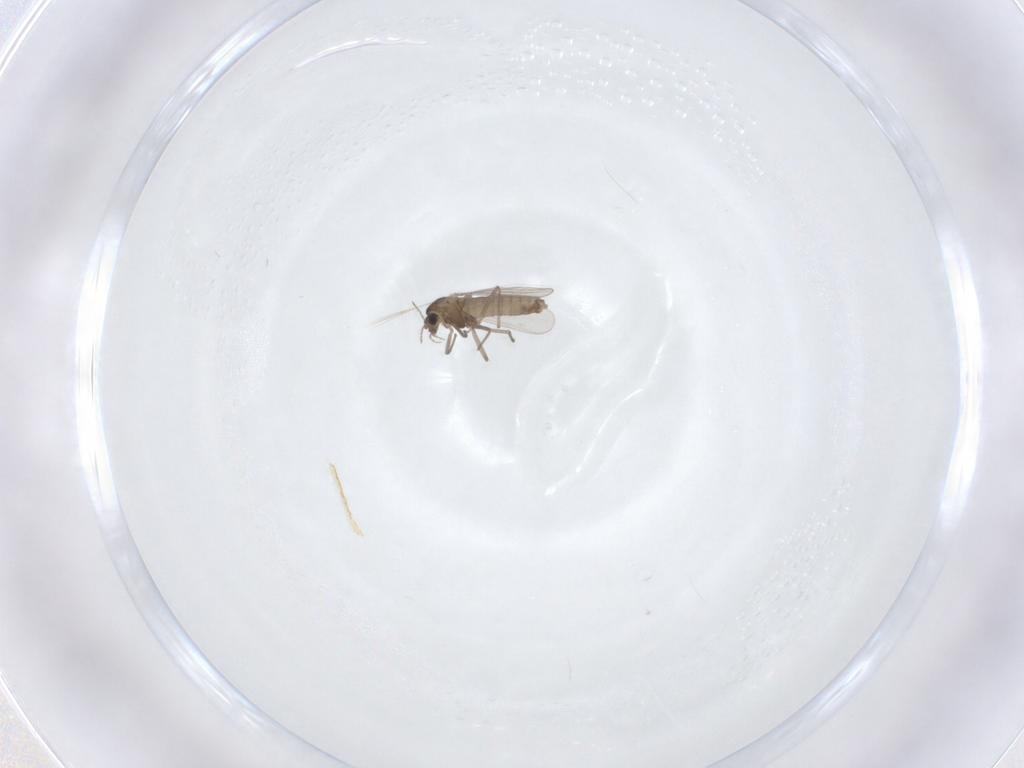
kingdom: Animalia
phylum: Arthropoda
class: Insecta
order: Diptera
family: Chironomidae
